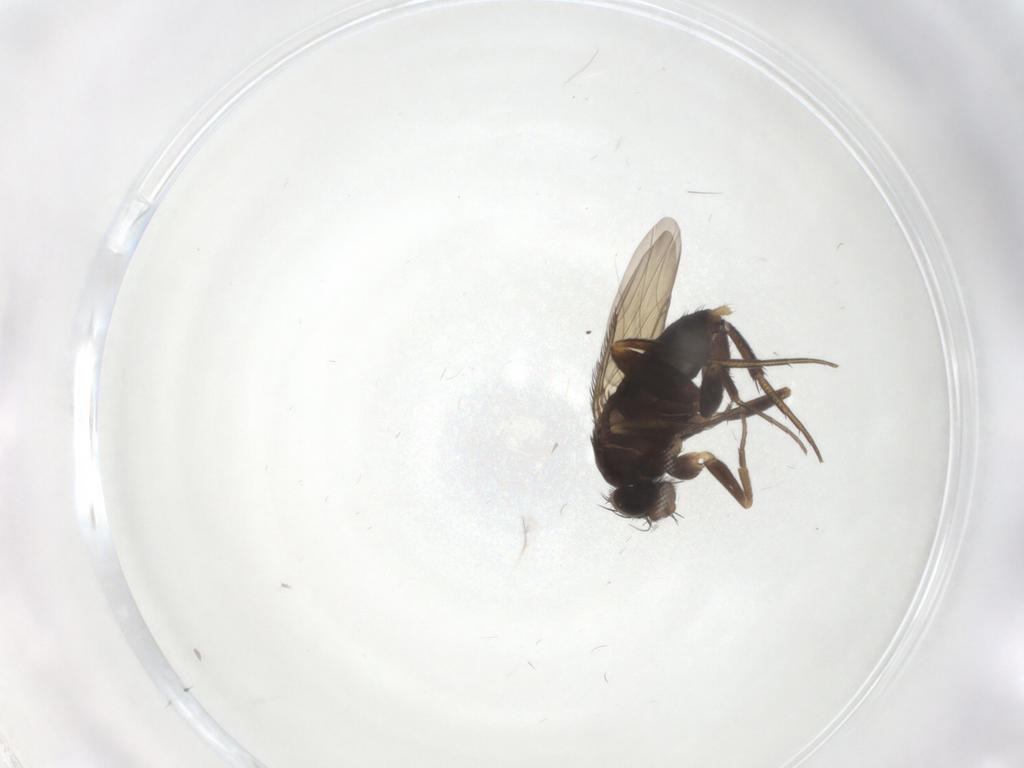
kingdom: Animalia
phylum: Arthropoda
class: Insecta
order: Diptera
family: Phoridae
